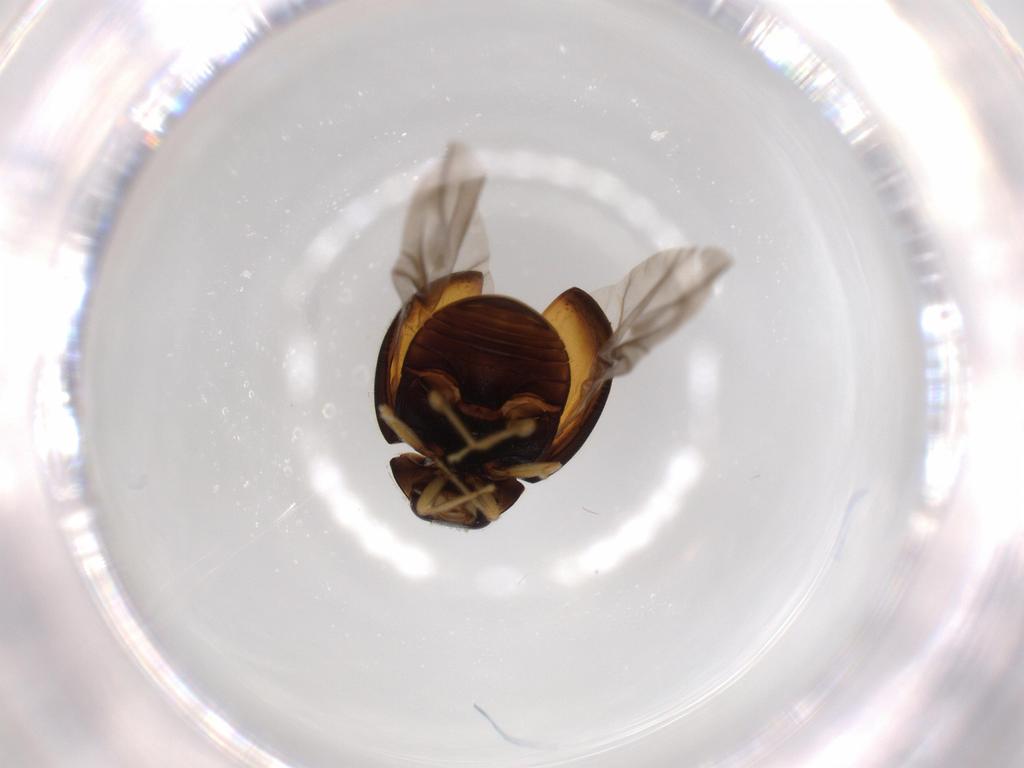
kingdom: Animalia
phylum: Arthropoda
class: Insecta
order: Coleoptera
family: Coccinellidae
